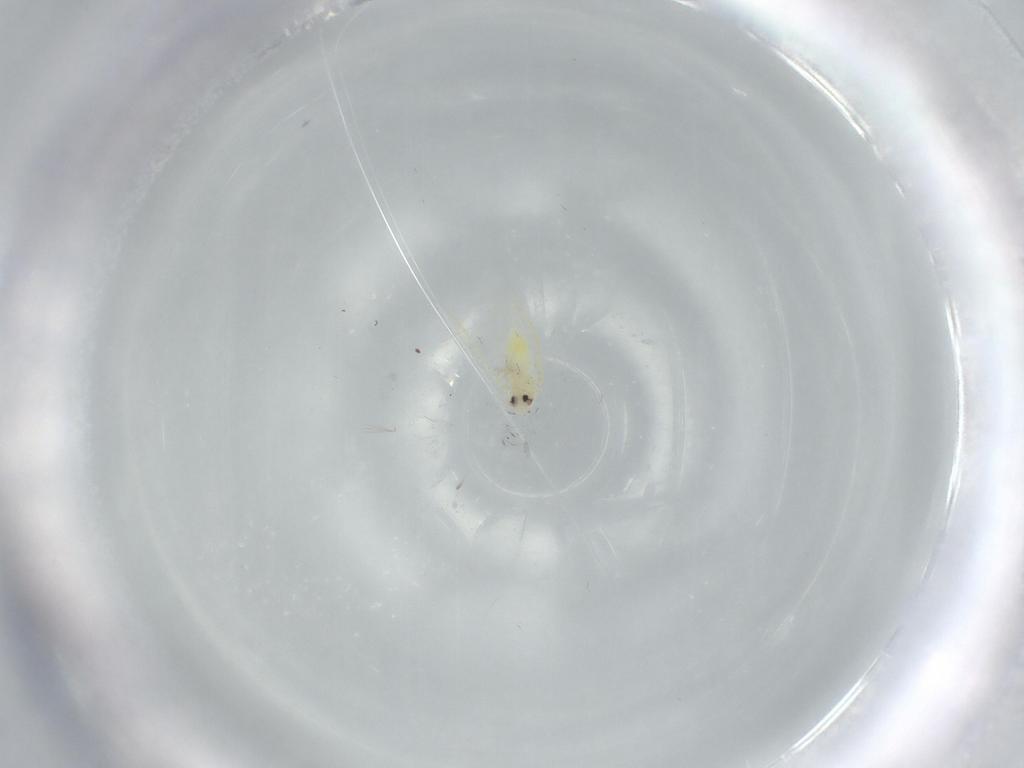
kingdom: Animalia
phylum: Arthropoda
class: Insecta
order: Hemiptera
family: Aleyrodidae
